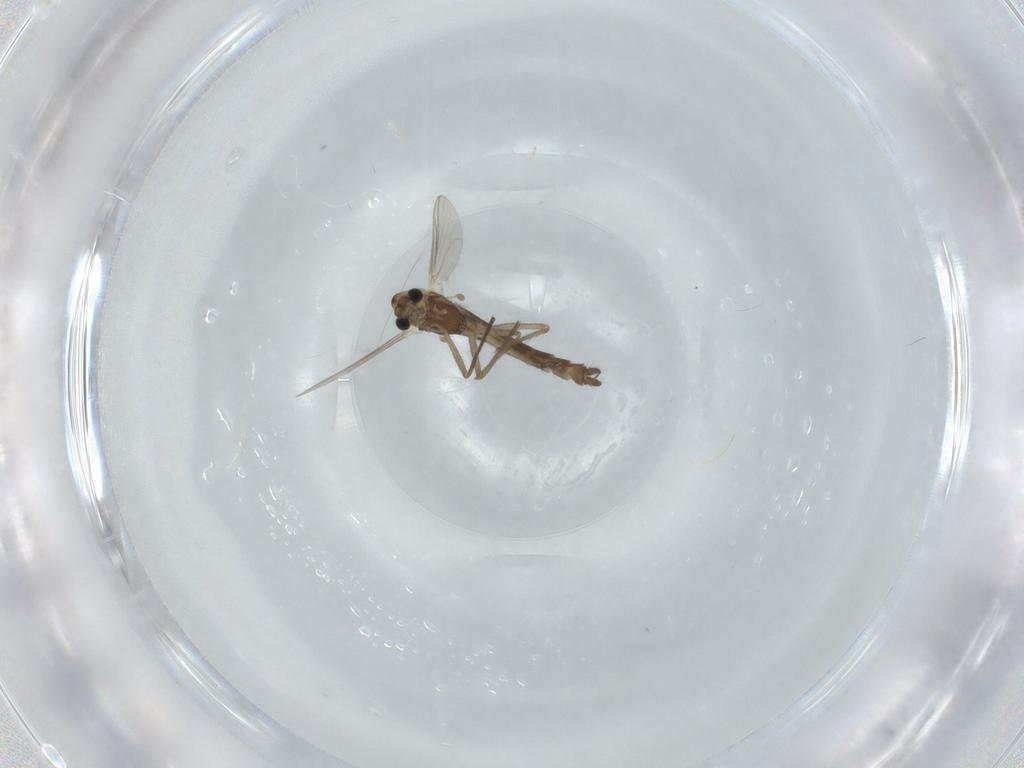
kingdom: Animalia
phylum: Arthropoda
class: Insecta
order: Diptera
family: Chironomidae
